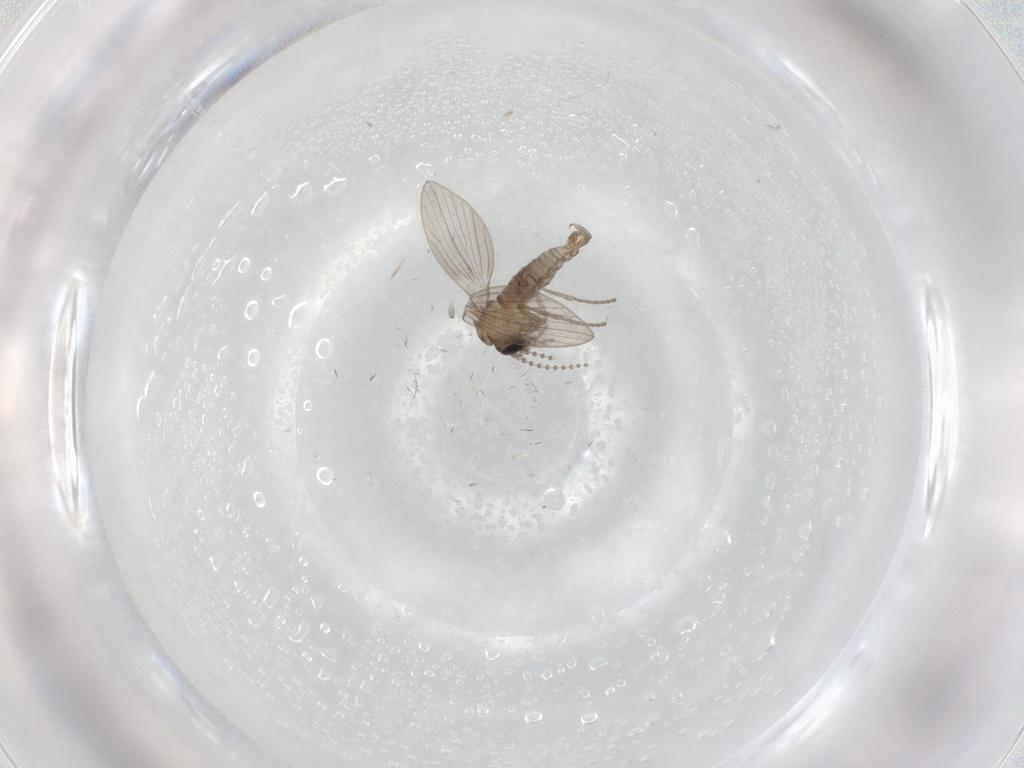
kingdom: Animalia
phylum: Arthropoda
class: Insecta
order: Diptera
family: Psychodidae
